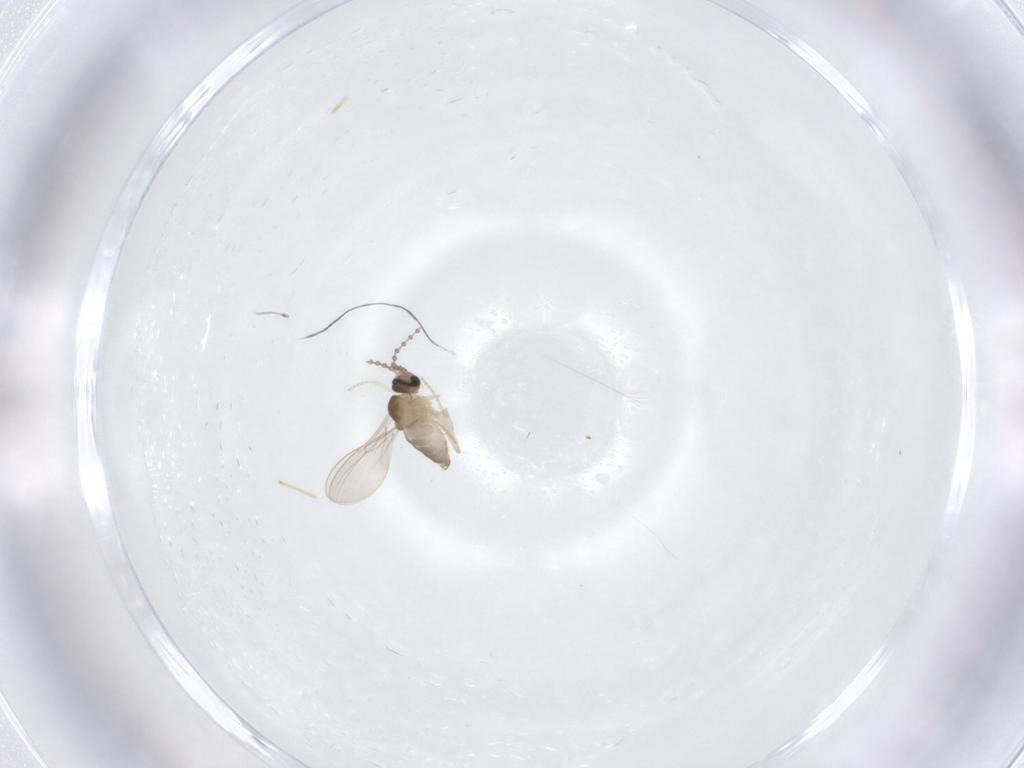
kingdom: Animalia
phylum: Arthropoda
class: Insecta
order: Diptera
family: Chironomidae
